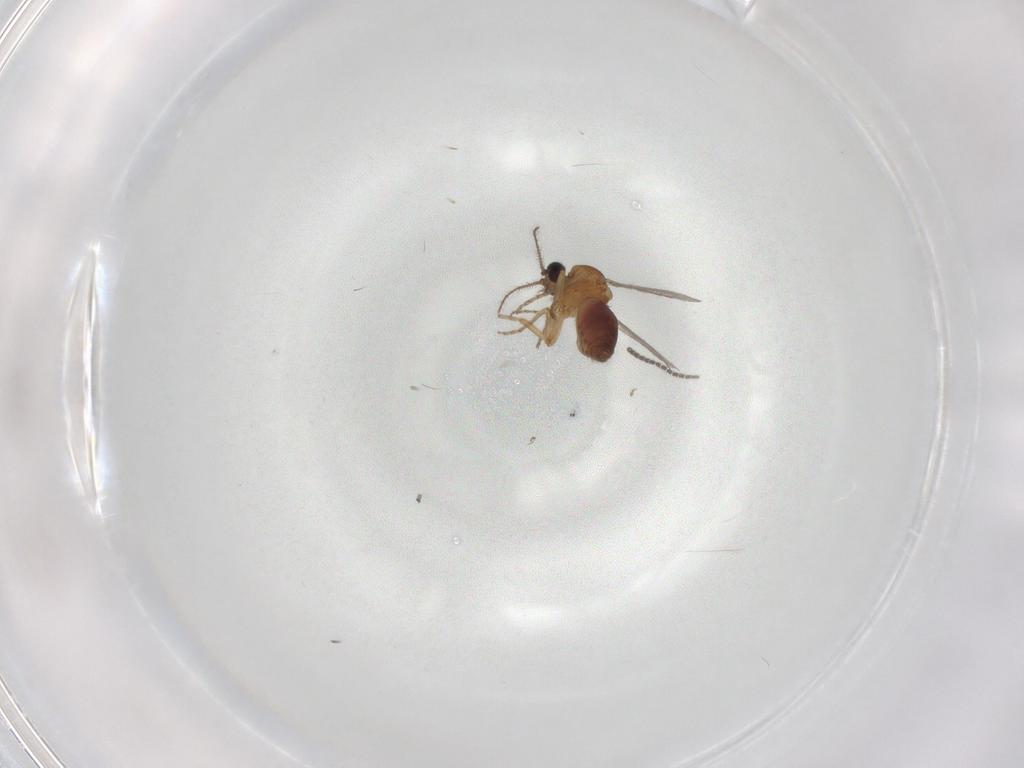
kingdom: Animalia
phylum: Arthropoda
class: Insecta
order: Diptera
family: Ceratopogonidae
